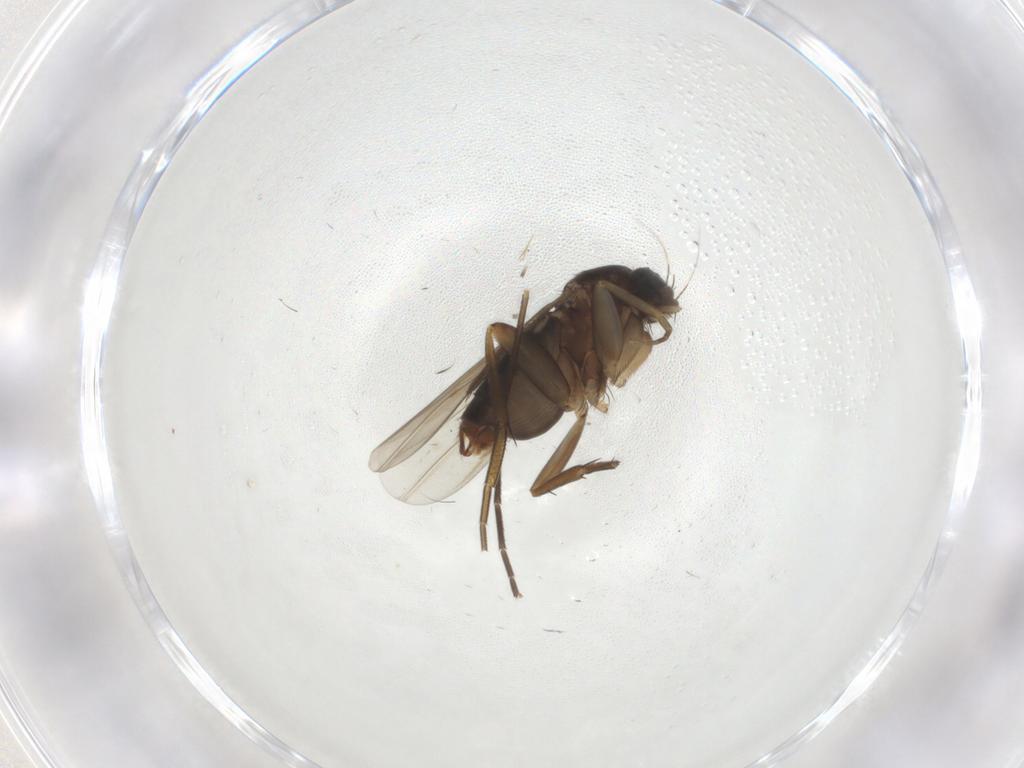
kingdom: Animalia
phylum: Arthropoda
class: Insecta
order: Diptera
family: Phoridae
